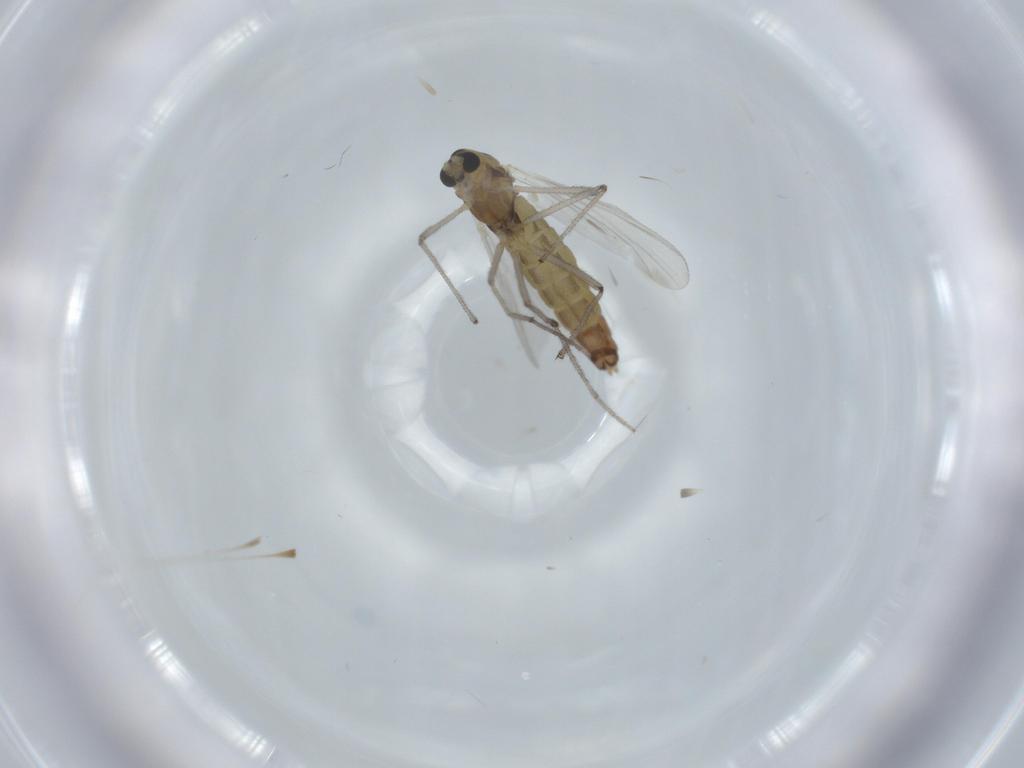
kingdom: Animalia
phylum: Arthropoda
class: Insecta
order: Diptera
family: Chironomidae
